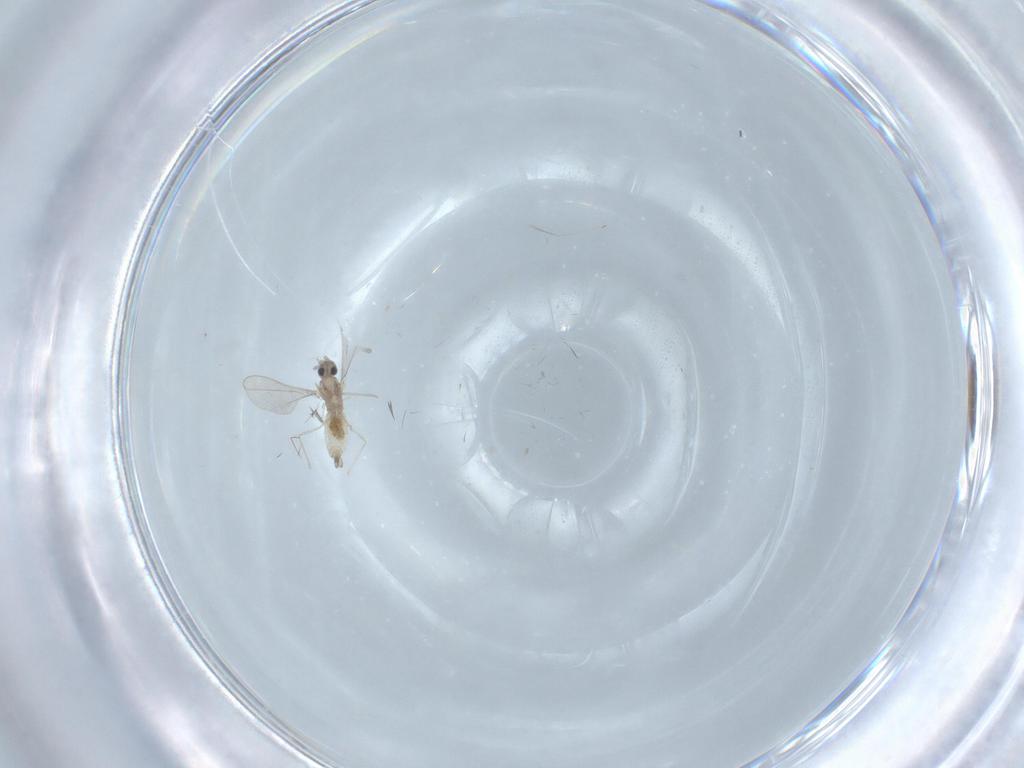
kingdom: Animalia
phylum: Arthropoda
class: Insecta
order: Diptera
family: Cecidomyiidae
